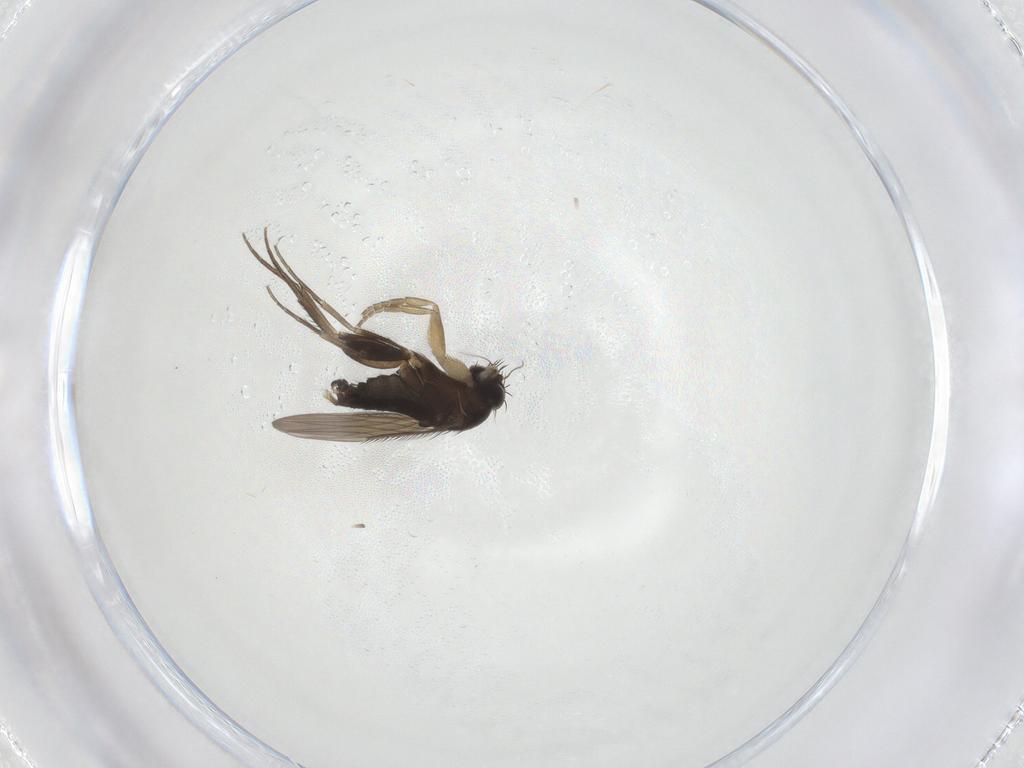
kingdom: Animalia
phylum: Arthropoda
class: Insecta
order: Diptera
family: Phoridae
